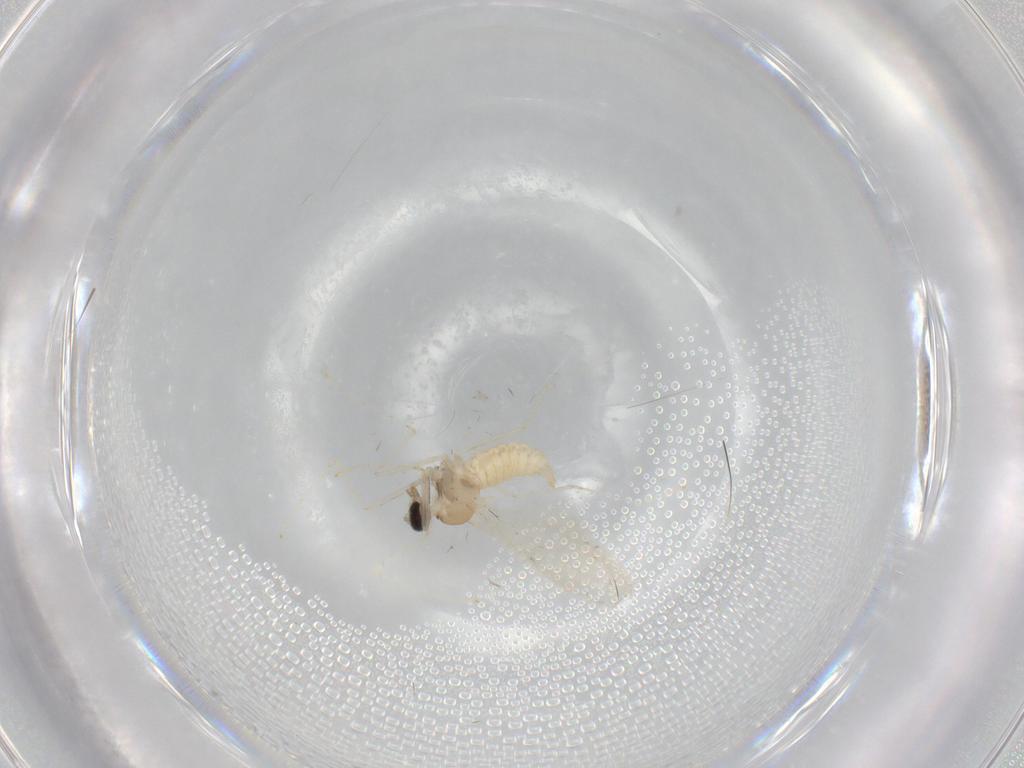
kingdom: Animalia
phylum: Arthropoda
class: Insecta
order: Diptera
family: Cecidomyiidae
